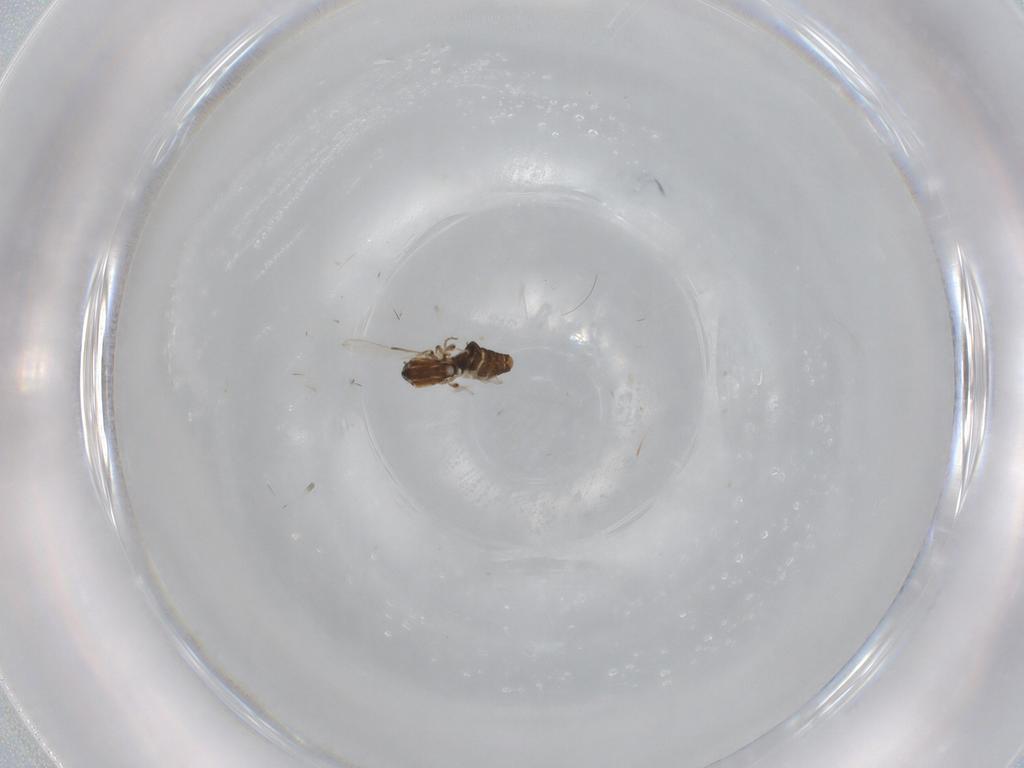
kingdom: Animalia
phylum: Arthropoda
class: Insecta
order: Diptera
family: Ceratopogonidae
